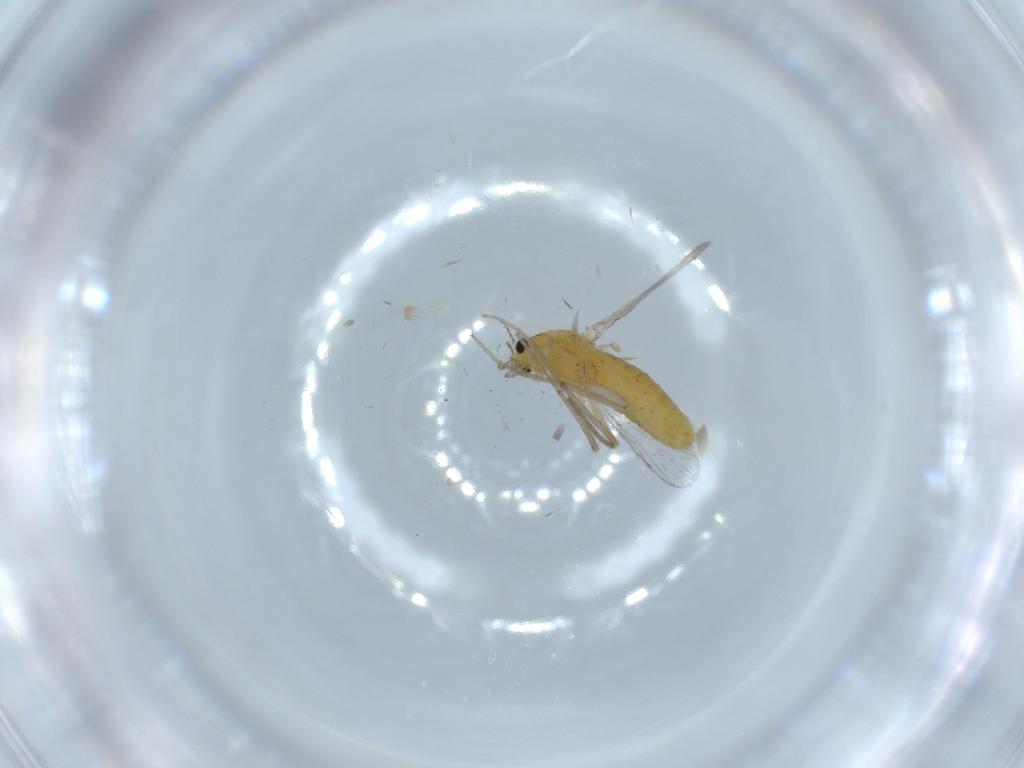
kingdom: Animalia
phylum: Arthropoda
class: Insecta
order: Diptera
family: Chironomidae
